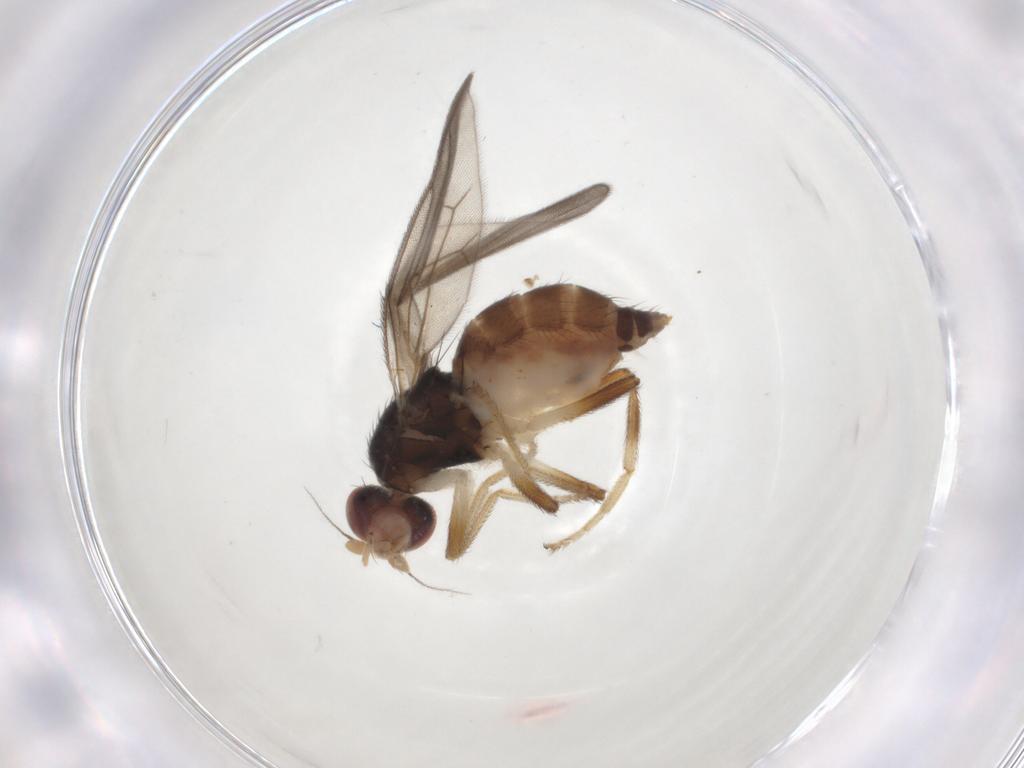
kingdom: Animalia
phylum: Arthropoda
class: Insecta
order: Diptera
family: Chloropidae
